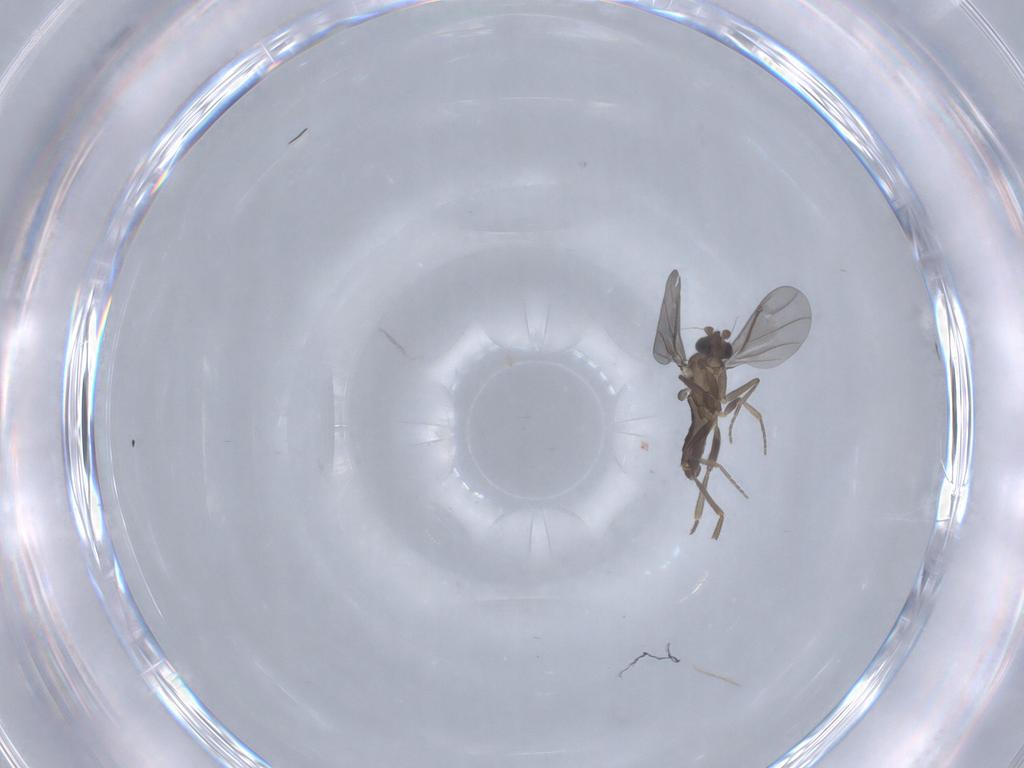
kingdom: Animalia
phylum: Arthropoda
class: Insecta
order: Diptera
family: Phoridae
